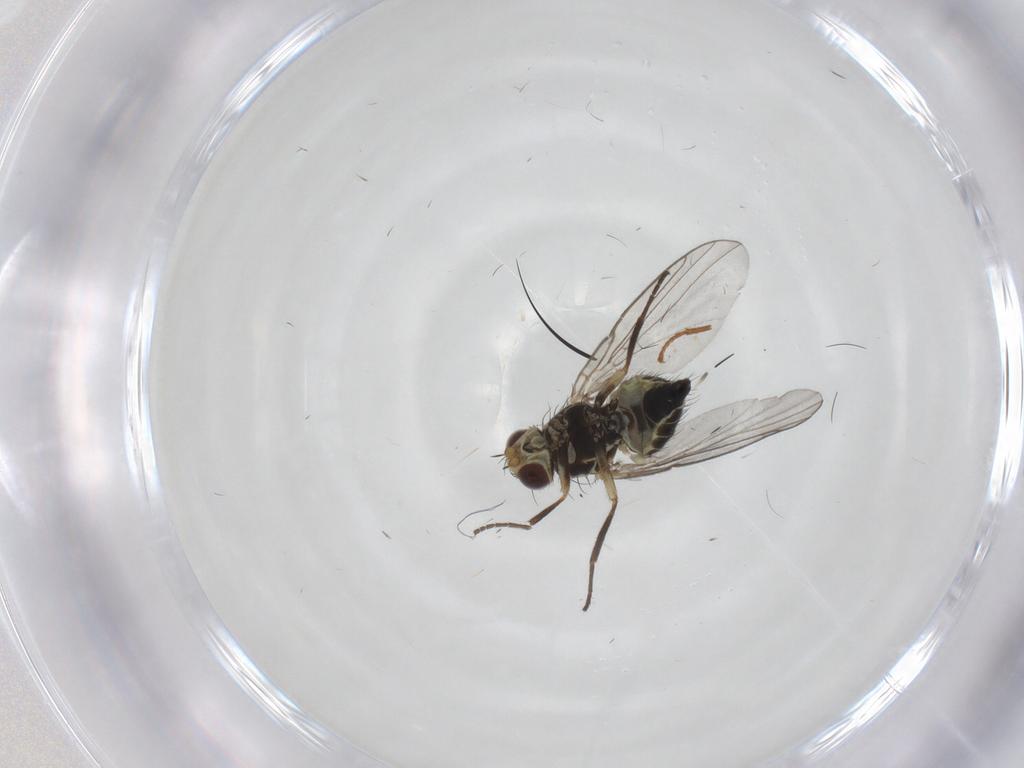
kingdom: Animalia
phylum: Arthropoda
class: Insecta
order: Diptera
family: Agromyzidae
